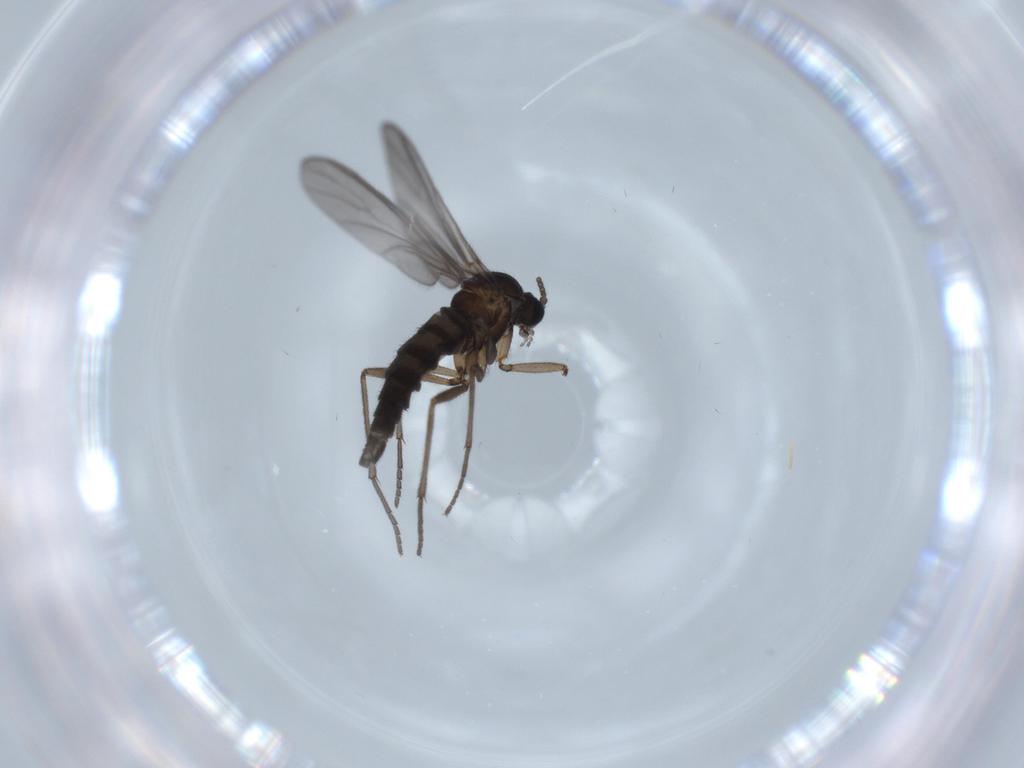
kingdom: Animalia
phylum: Arthropoda
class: Insecta
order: Diptera
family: Sciaridae
